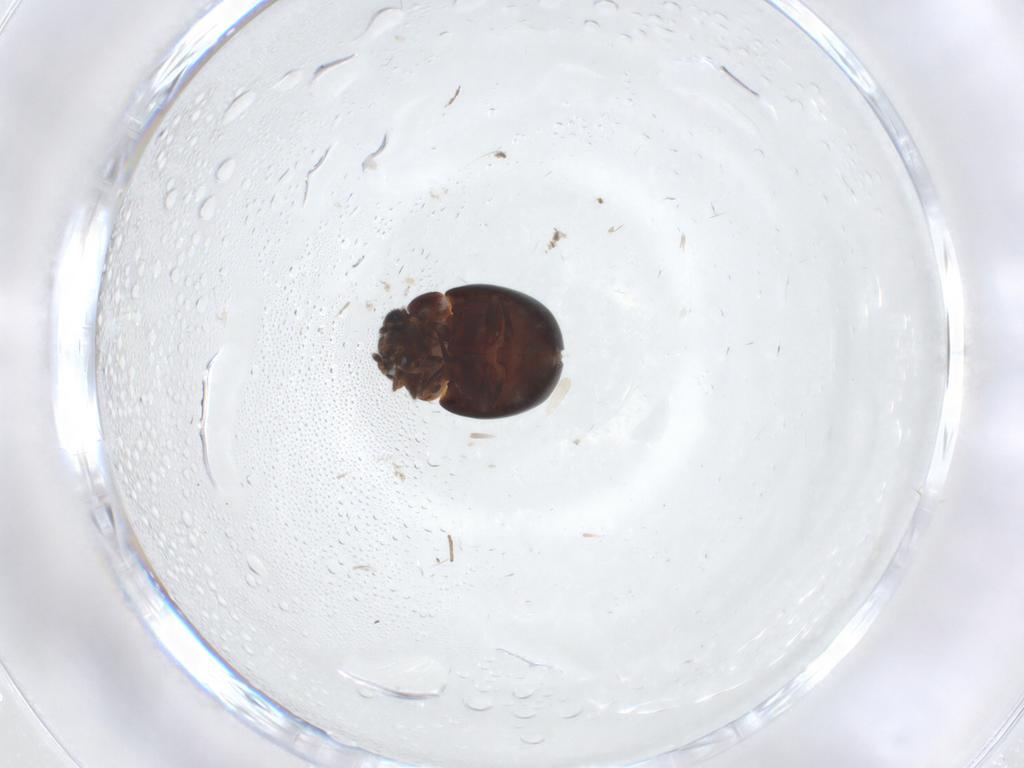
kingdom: Animalia
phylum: Arthropoda
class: Insecta
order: Coleoptera
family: Anamorphidae
